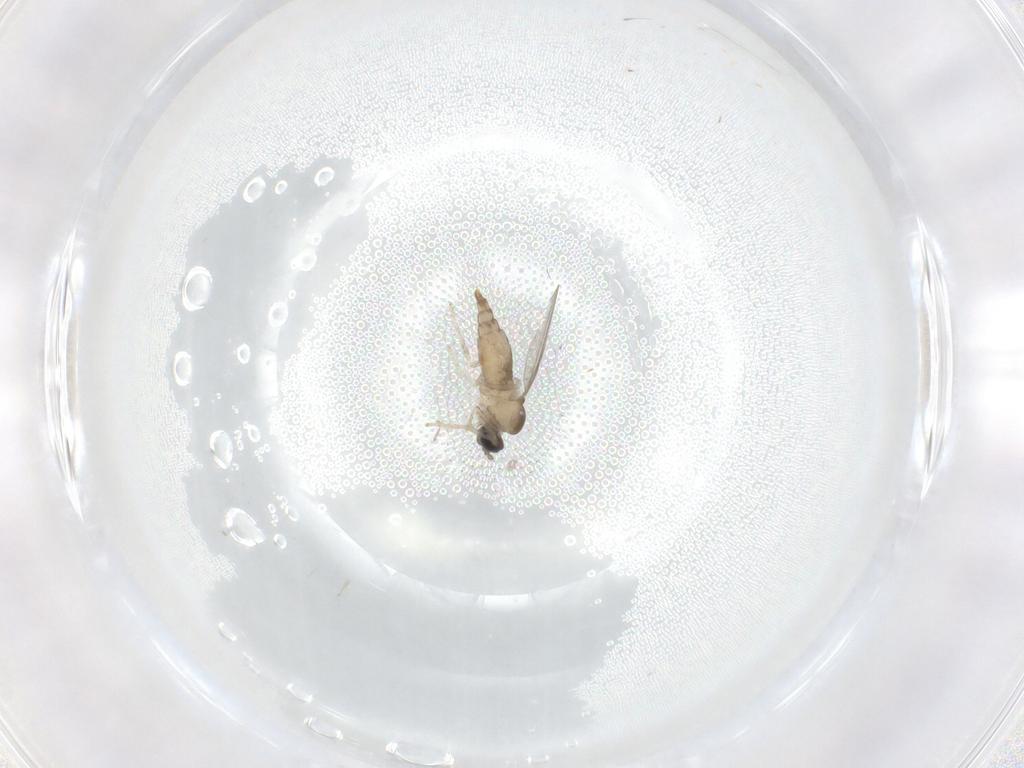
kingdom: Animalia
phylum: Arthropoda
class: Insecta
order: Diptera
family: Cecidomyiidae
